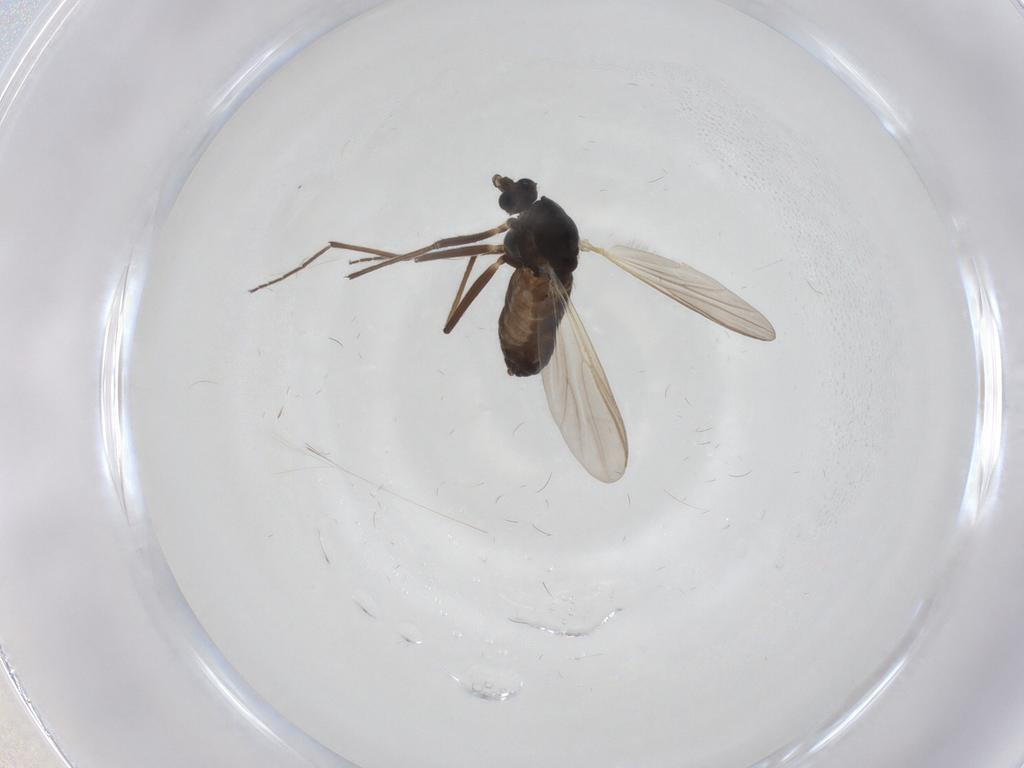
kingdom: Animalia
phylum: Arthropoda
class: Insecta
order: Diptera
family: Chironomidae
